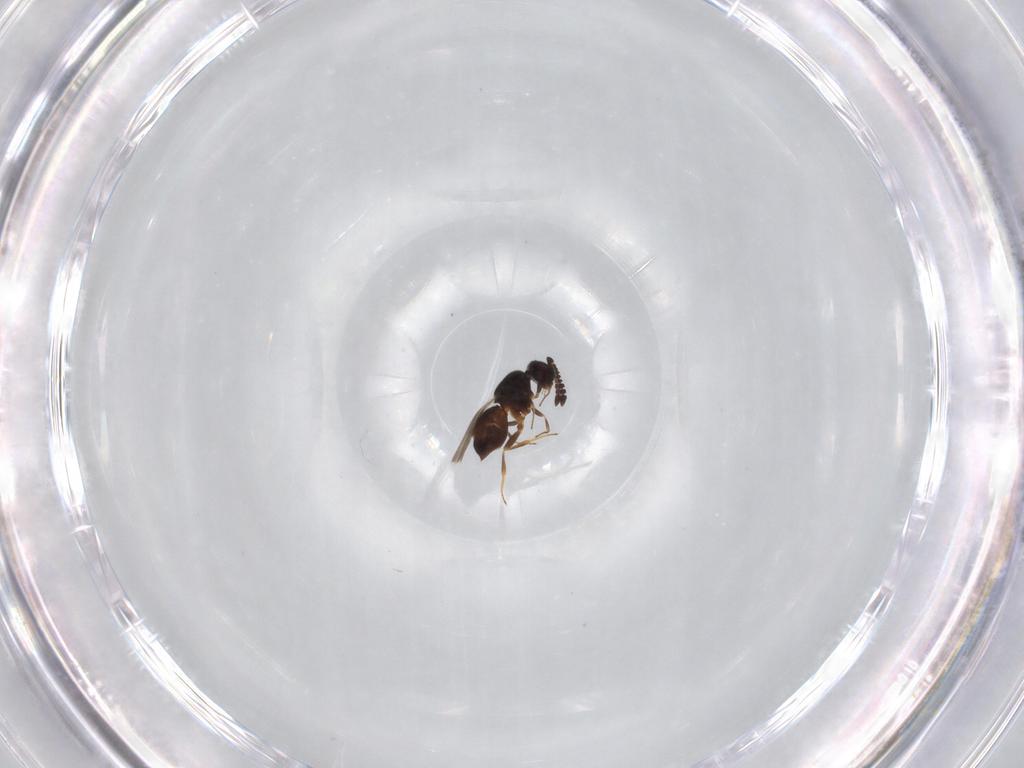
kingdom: Animalia
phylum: Arthropoda
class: Insecta
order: Hymenoptera
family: Ceraphronidae
